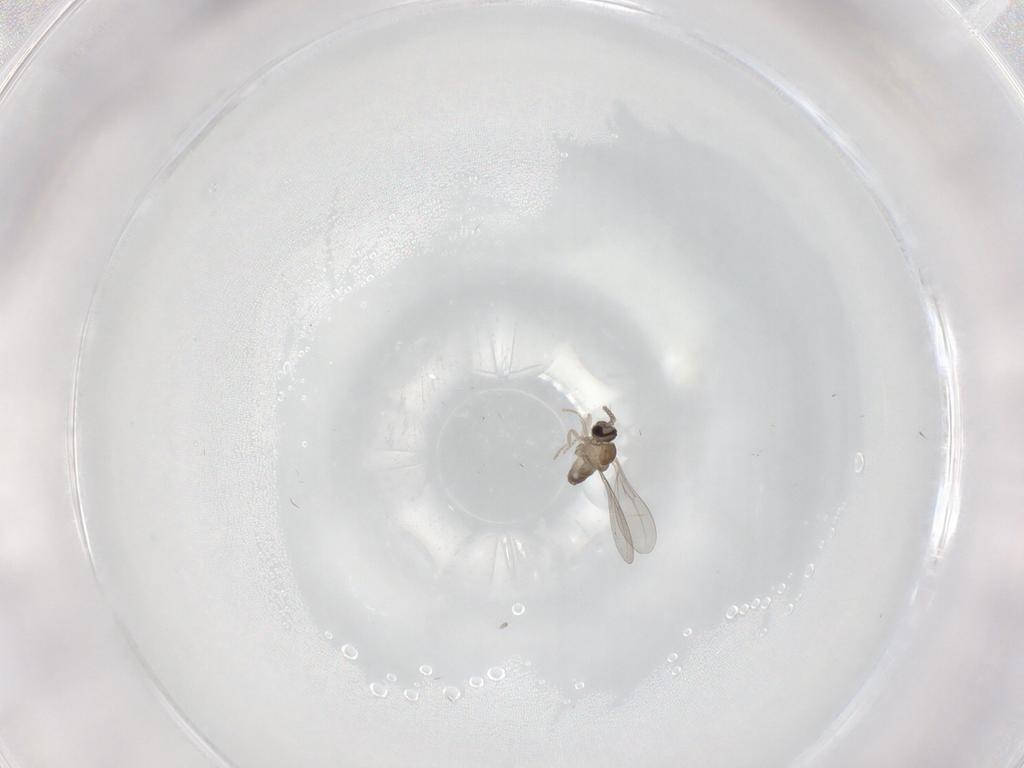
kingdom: Animalia
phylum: Arthropoda
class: Insecta
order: Diptera
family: Cecidomyiidae
